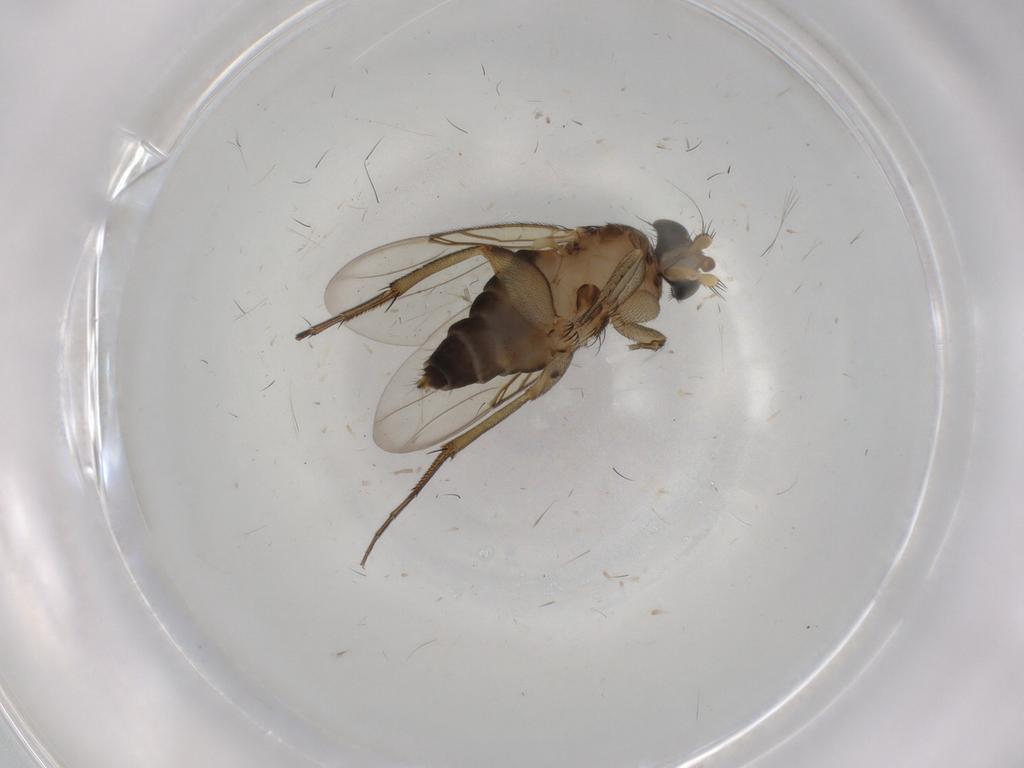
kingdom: Animalia
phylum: Arthropoda
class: Insecta
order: Diptera
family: Phoridae
